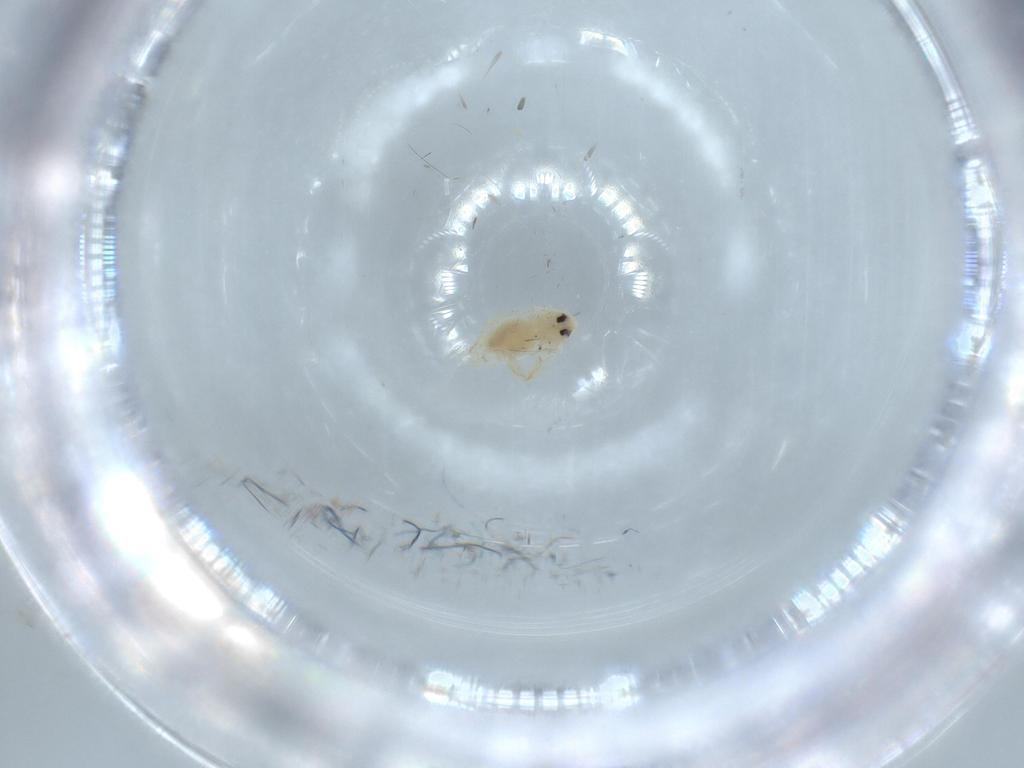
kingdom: Animalia
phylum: Arthropoda
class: Insecta
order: Hemiptera
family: Aleyrodidae
